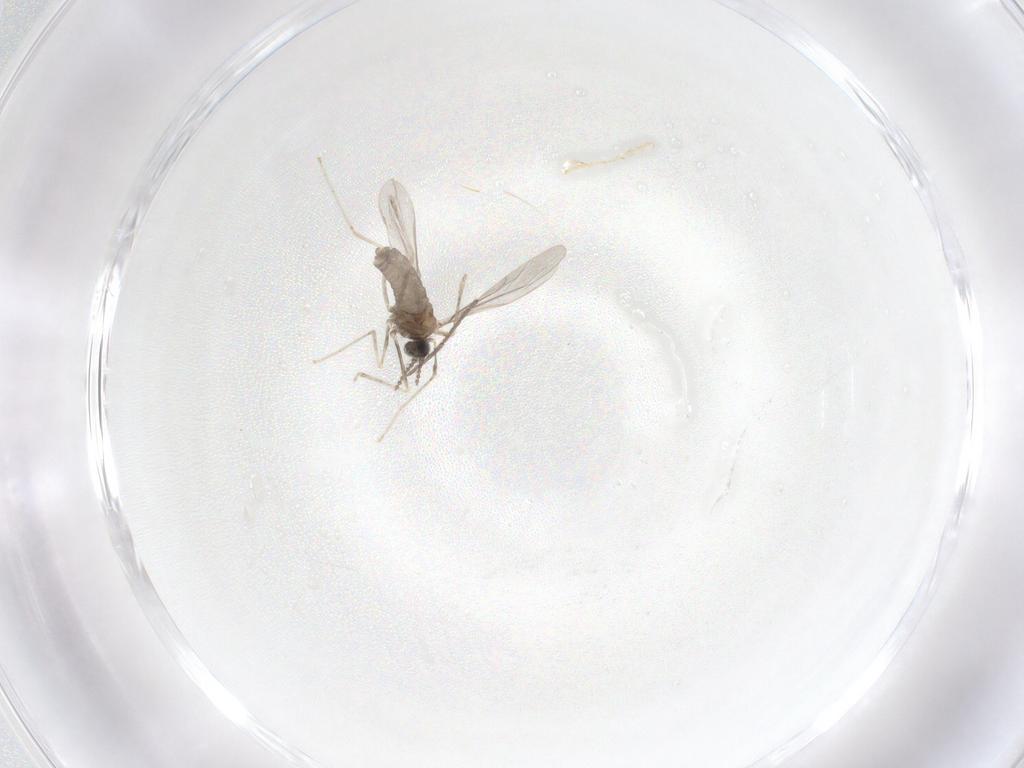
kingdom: Animalia
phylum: Arthropoda
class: Insecta
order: Diptera
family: Cecidomyiidae
